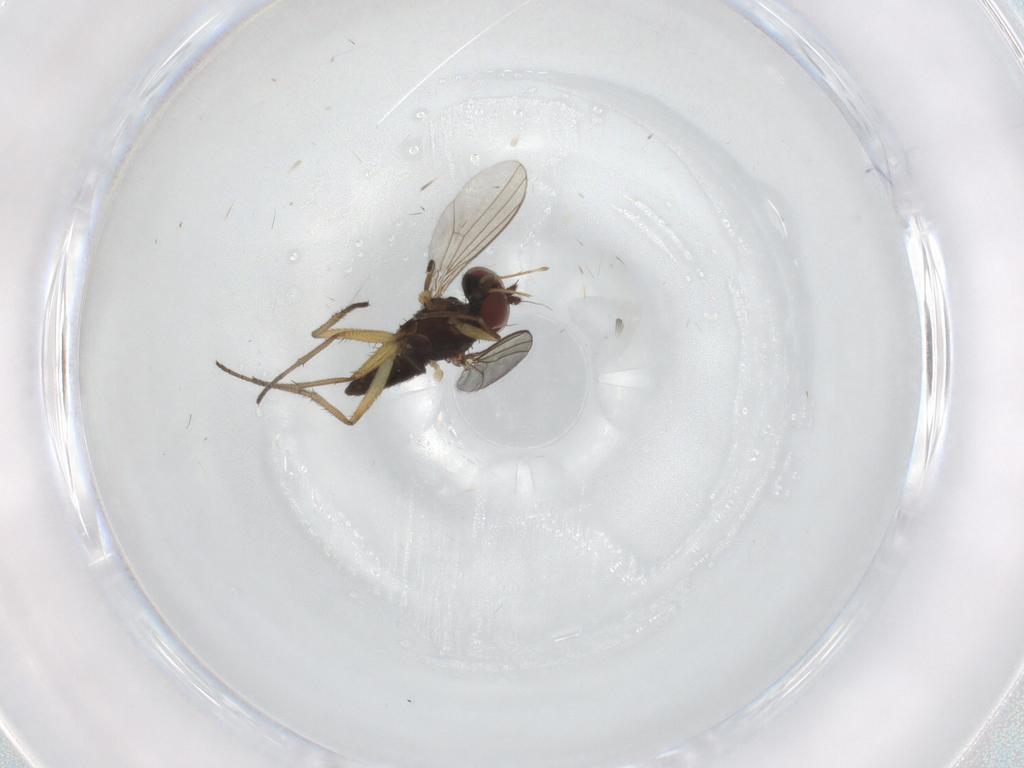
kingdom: Animalia
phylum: Arthropoda
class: Insecta
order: Diptera
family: Dolichopodidae
